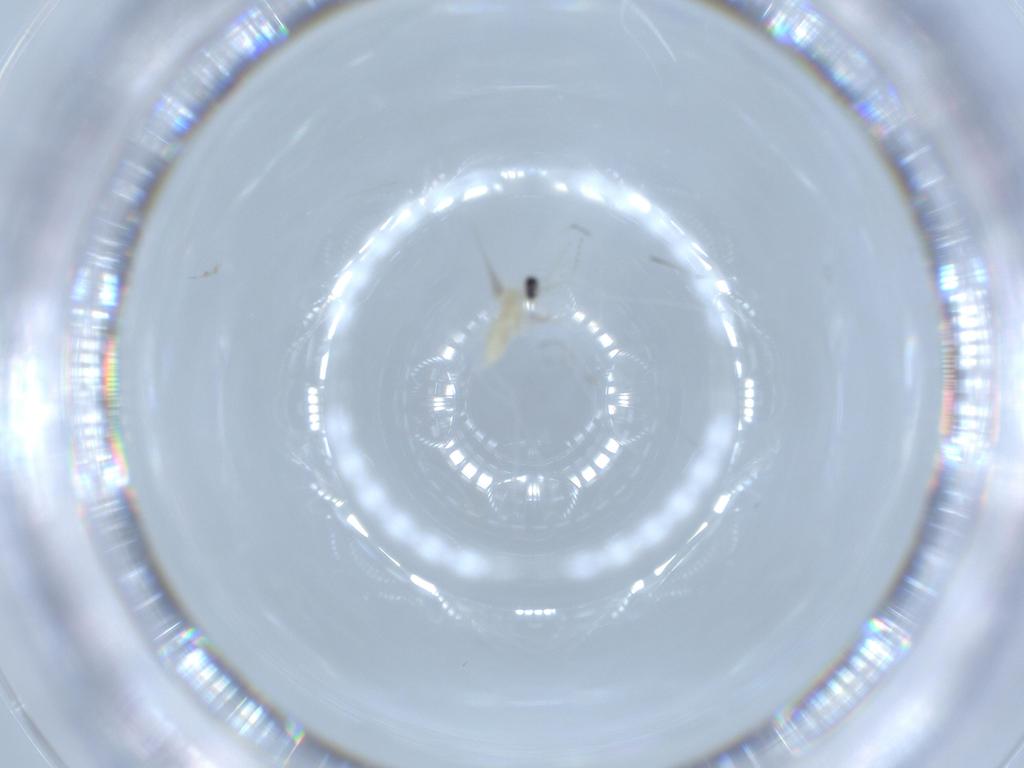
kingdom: Animalia
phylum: Arthropoda
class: Insecta
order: Diptera
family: Cecidomyiidae
